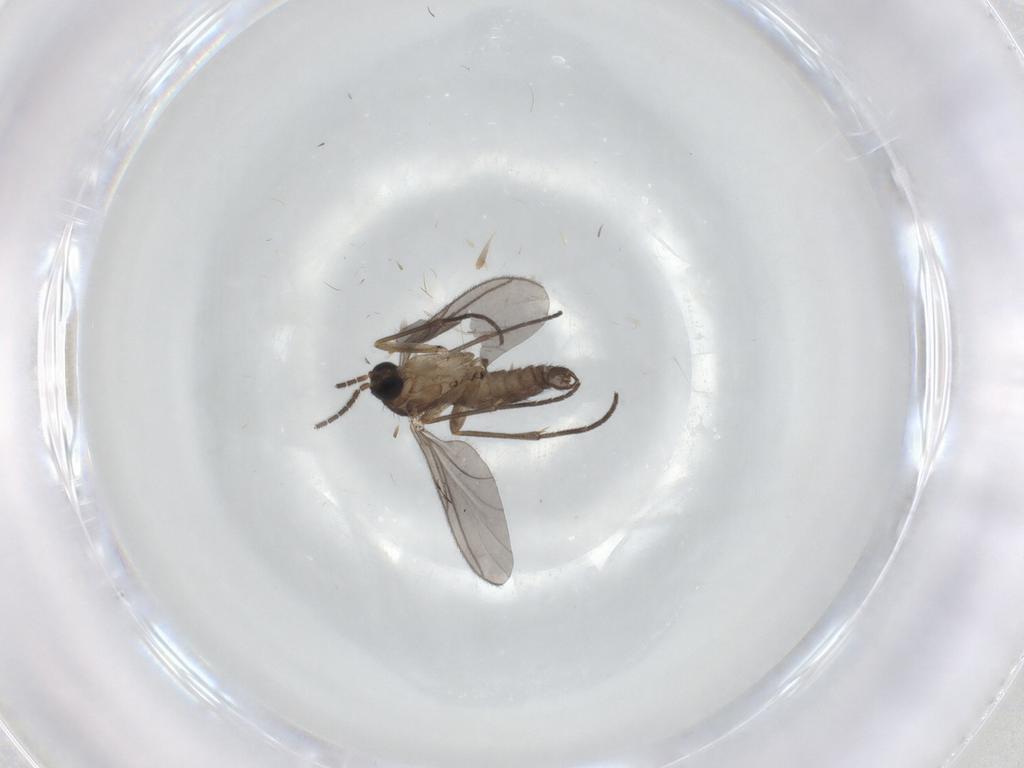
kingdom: Animalia
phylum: Arthropoda
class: Insecta
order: Diptera
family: Sciaridae
